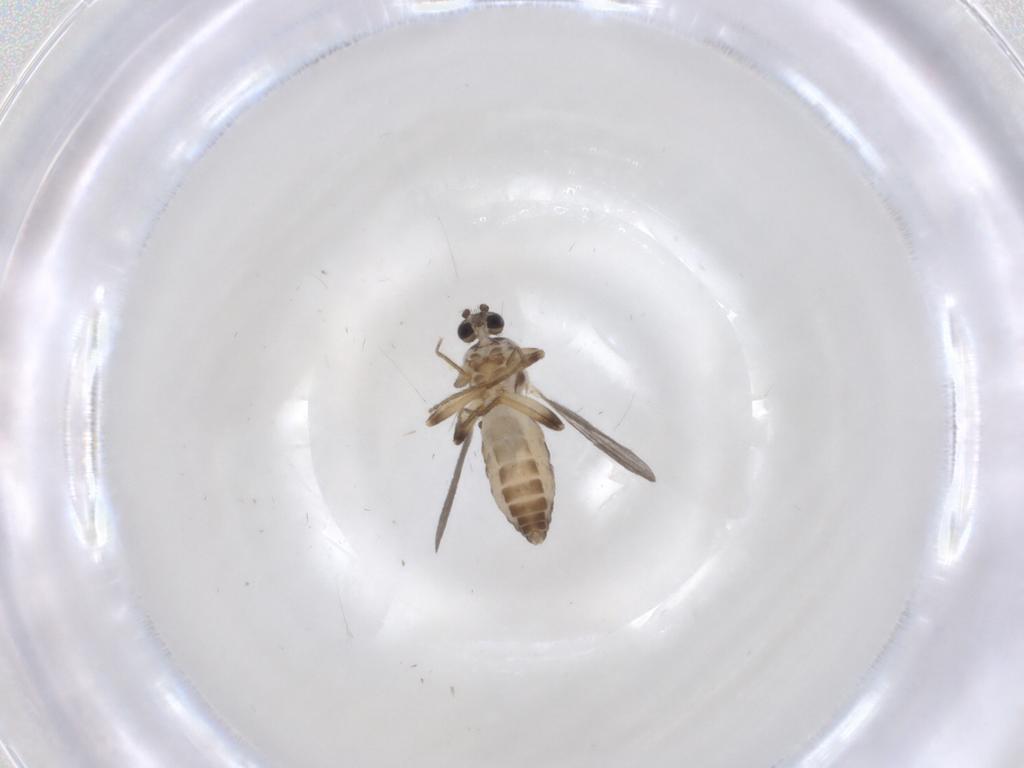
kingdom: Animalia
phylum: Arthropoda
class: Insecta
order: Diptera
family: Ceratopogonidae
